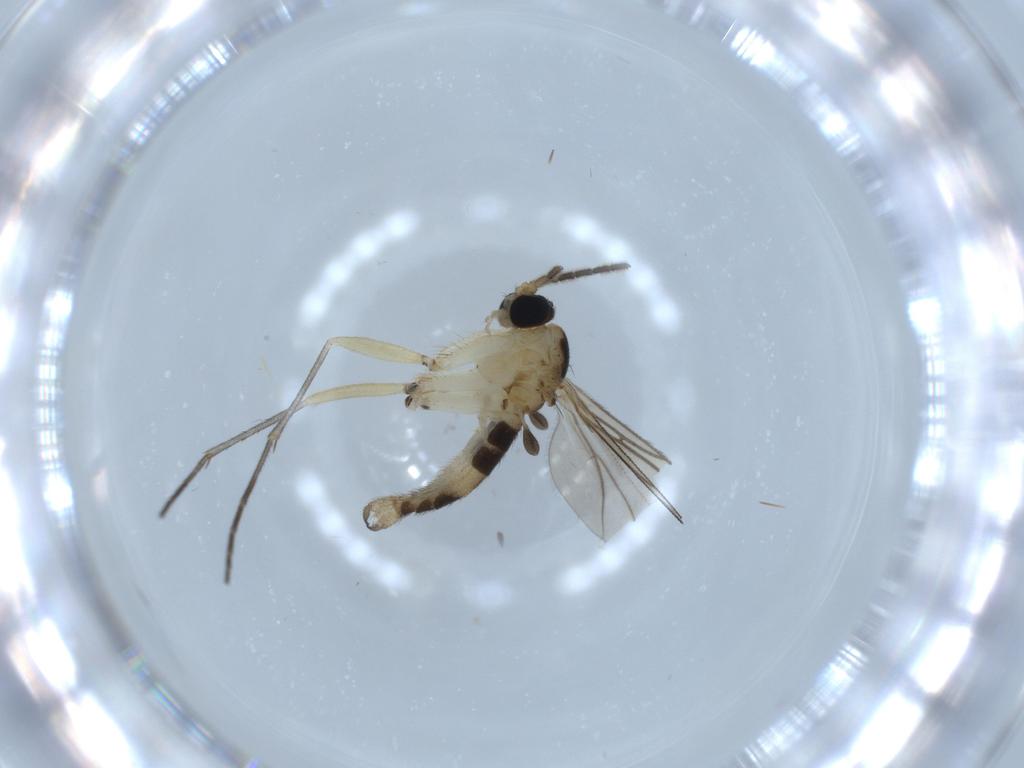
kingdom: Animalia
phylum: Arthropoda
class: Insecta
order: Diptera
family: Sciaridae
